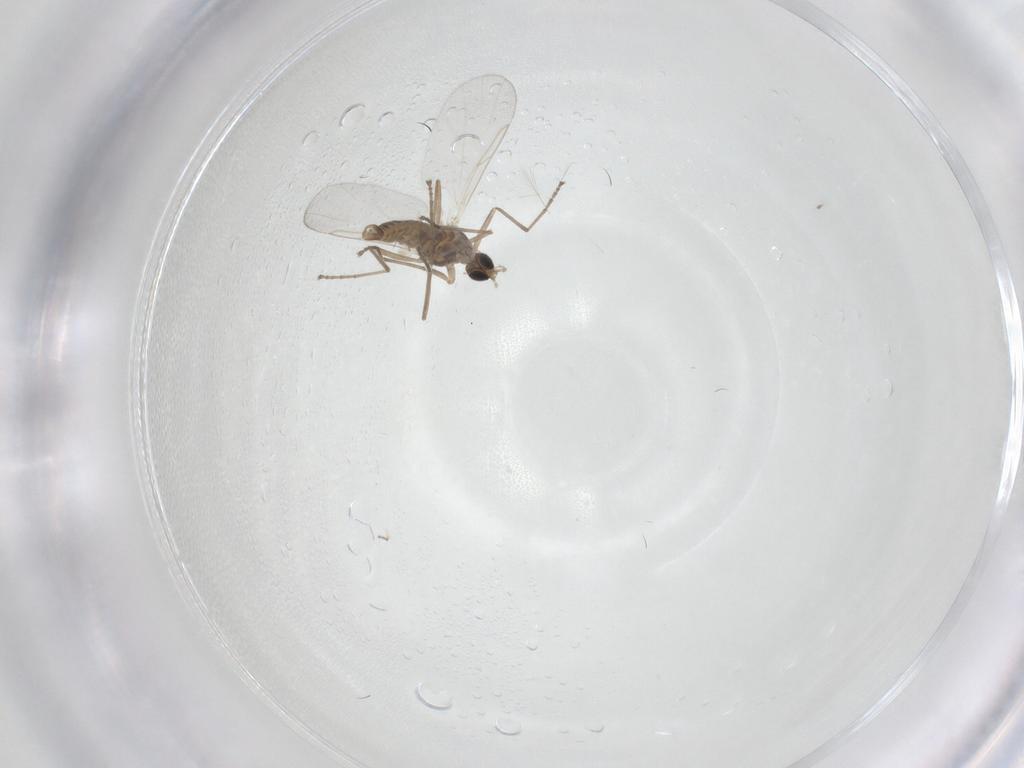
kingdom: Animalia
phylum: Arthropoda
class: Insecta
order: Diptera
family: Cecidomyiidae
